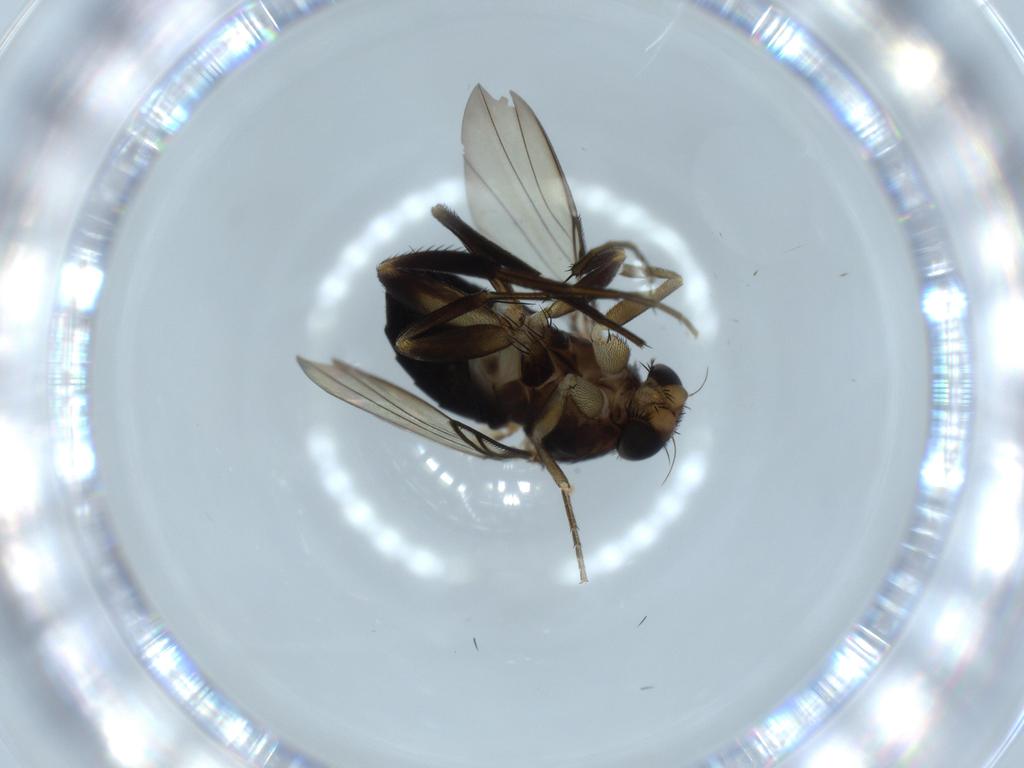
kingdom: Animalia
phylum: Arthropoda
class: Insecta
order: Diptera
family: Phoridae
